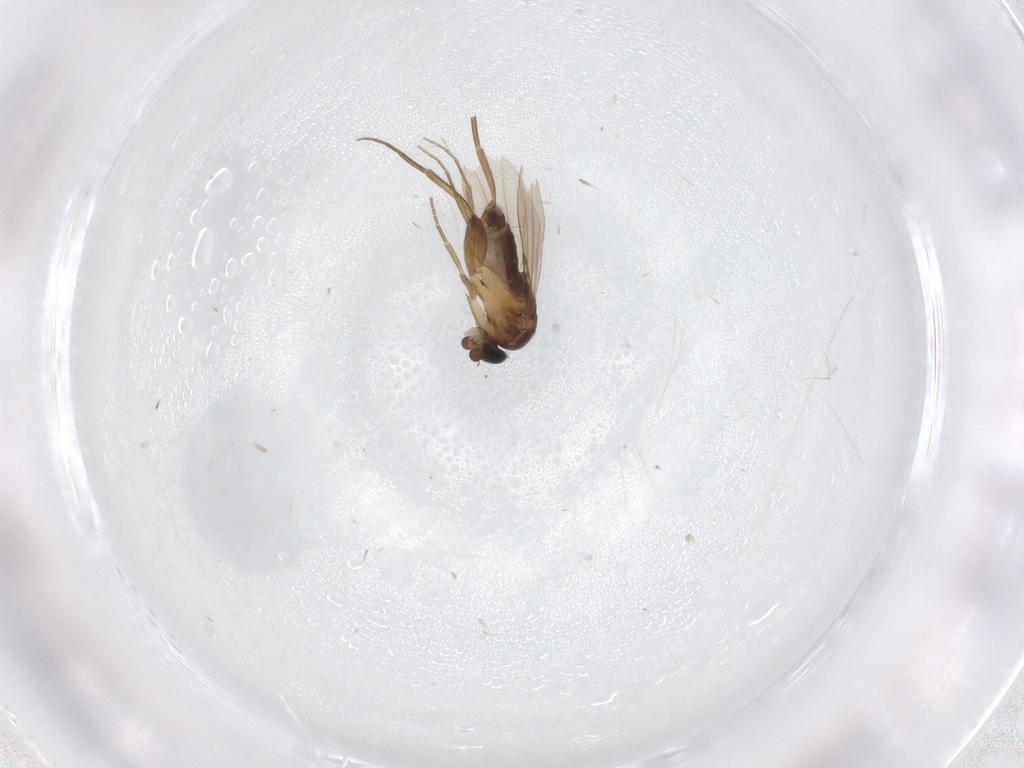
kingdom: Animalia
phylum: Arthropoda
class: Insecta
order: Diptera
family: Phoridae
